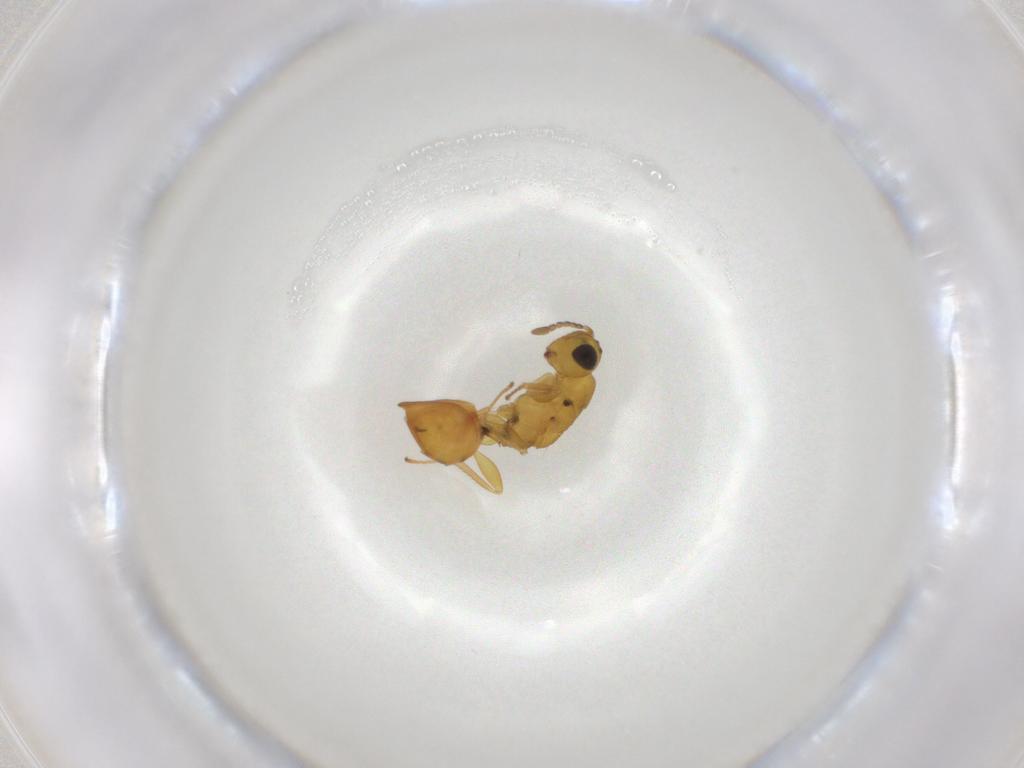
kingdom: Animalia
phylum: Arthropoda
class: Insecta
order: Hymenoptera
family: Eurytomidae
